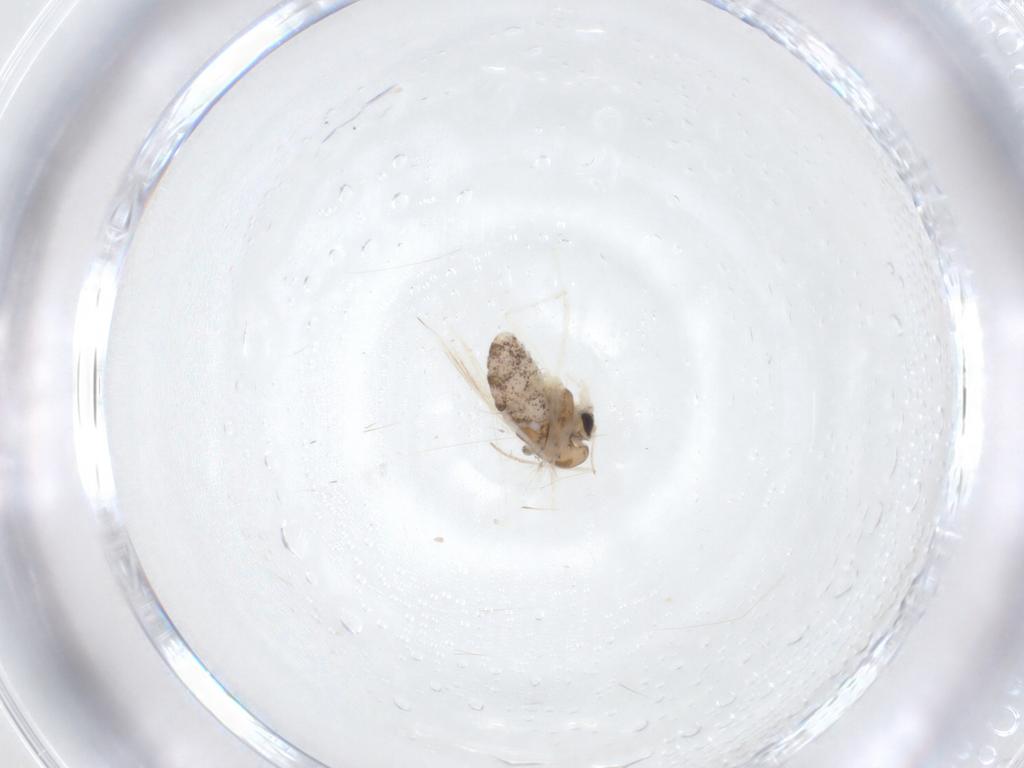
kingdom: Animalia
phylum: Arthropoda
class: Insecta
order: Diptera
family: Chironomidae
